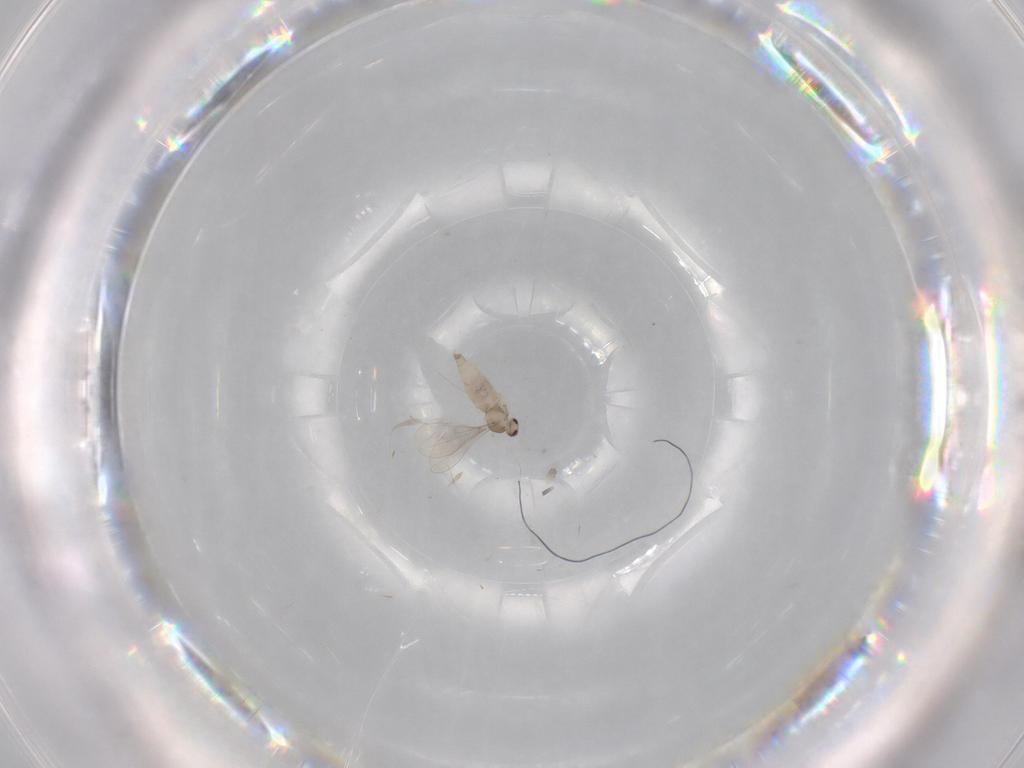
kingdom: Animalia
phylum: Arthropoda
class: Insecta
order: Diptera
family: Cecidomyiidae
